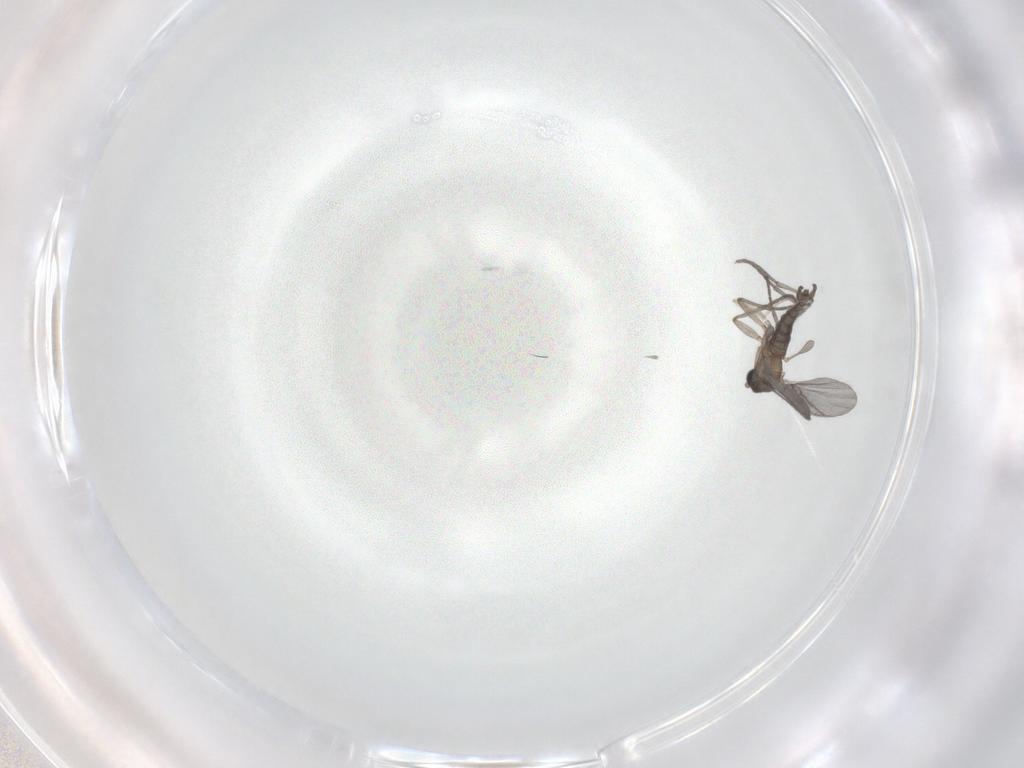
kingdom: Animalia
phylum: Arthropoda
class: Insecta
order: Diptera
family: Sciaridae
